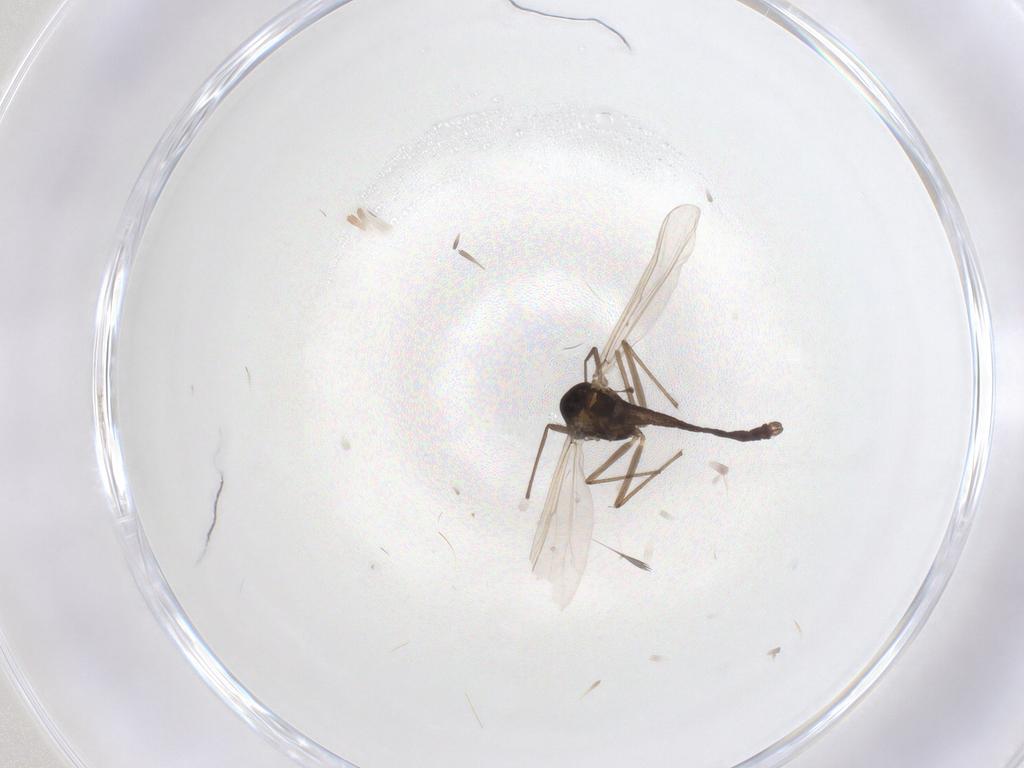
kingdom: Animalia
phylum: Arthropoda
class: Insecta
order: Diptera
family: Chironomidae
